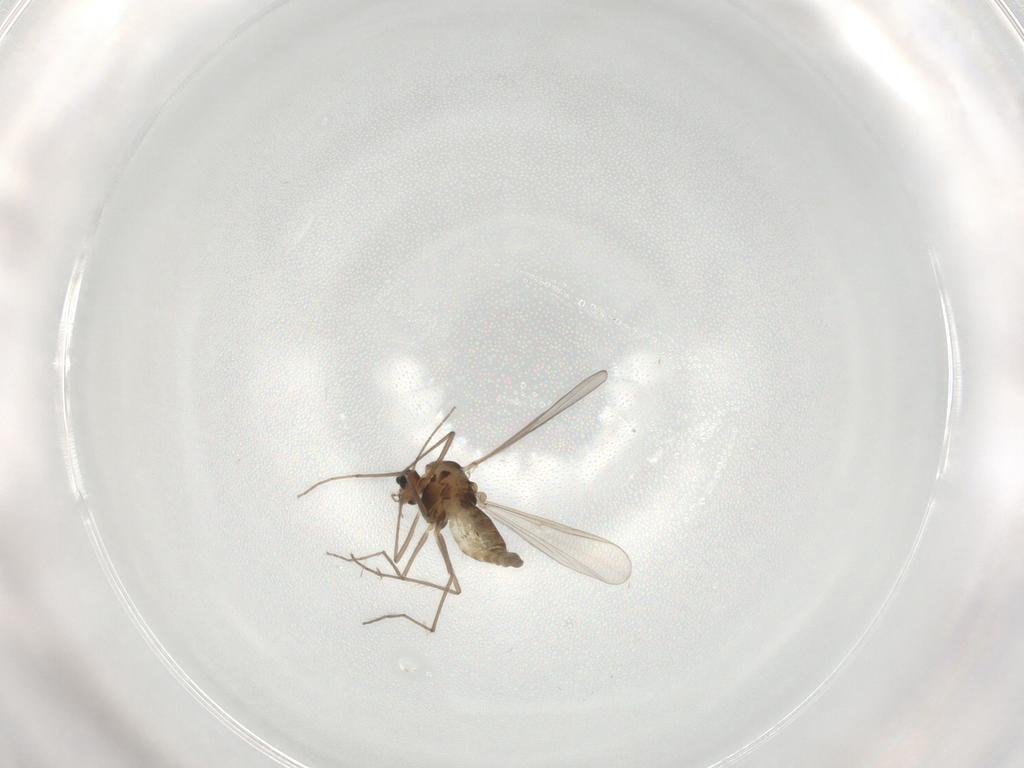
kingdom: Animalia
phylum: Arthropoda
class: Insecta
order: Diptera
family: Chironomidae
